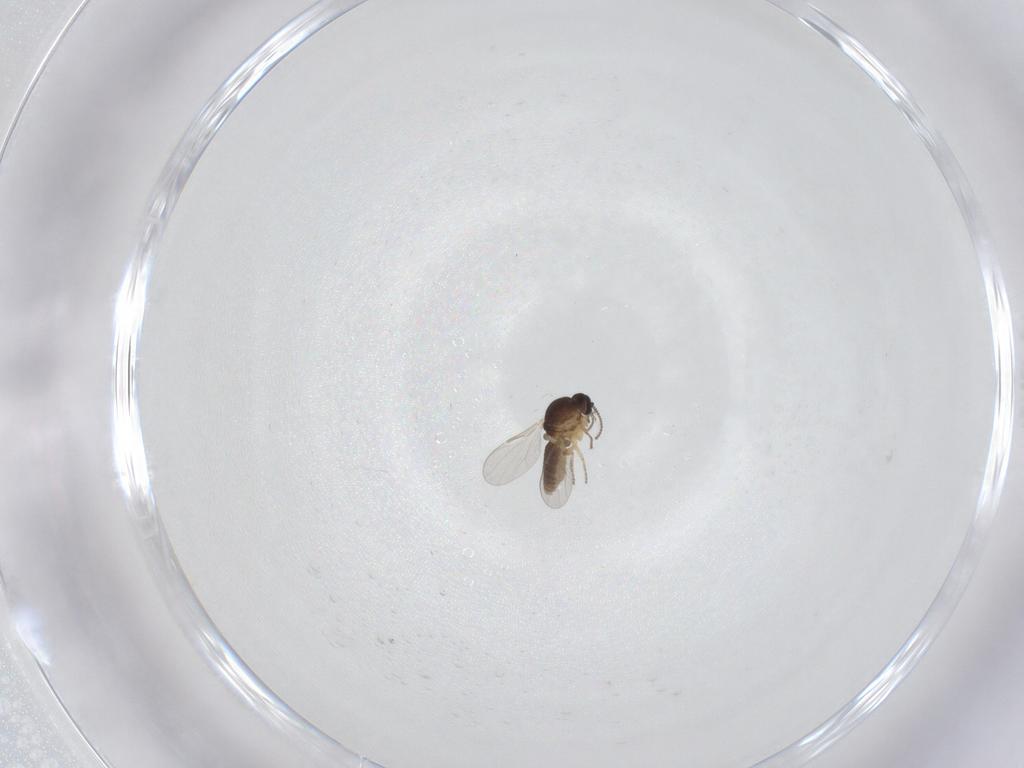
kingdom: Animalia
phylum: Arthropoda
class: Insecta
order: Diptera
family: Ceratopogonidae
